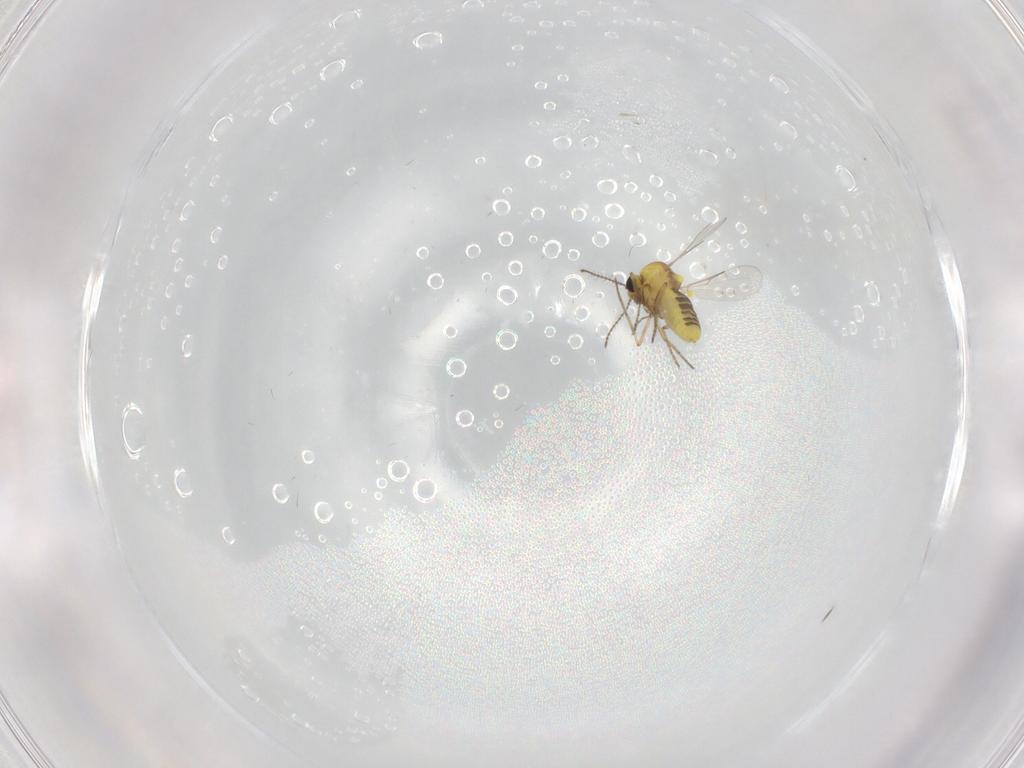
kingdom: Animalia
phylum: Arthropoda
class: Insecta
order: Diptera
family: Ceratopogonidae
